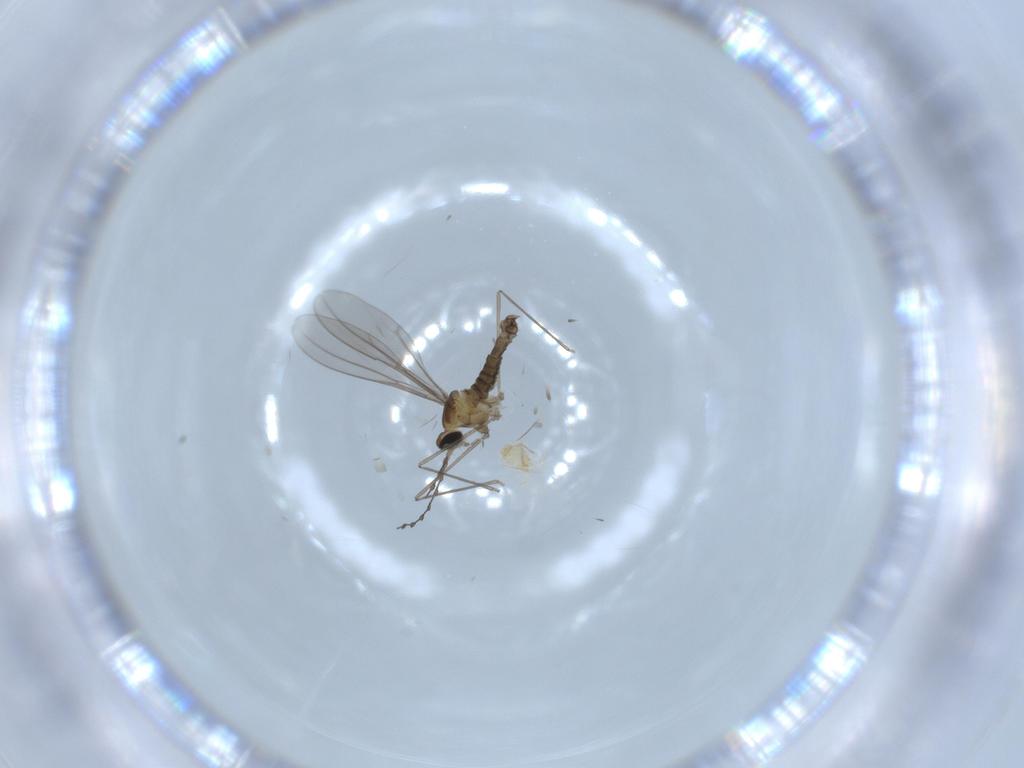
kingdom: Animalia
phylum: Arthropoda
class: Insecta
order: Diptera
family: Cecidomyiidae
